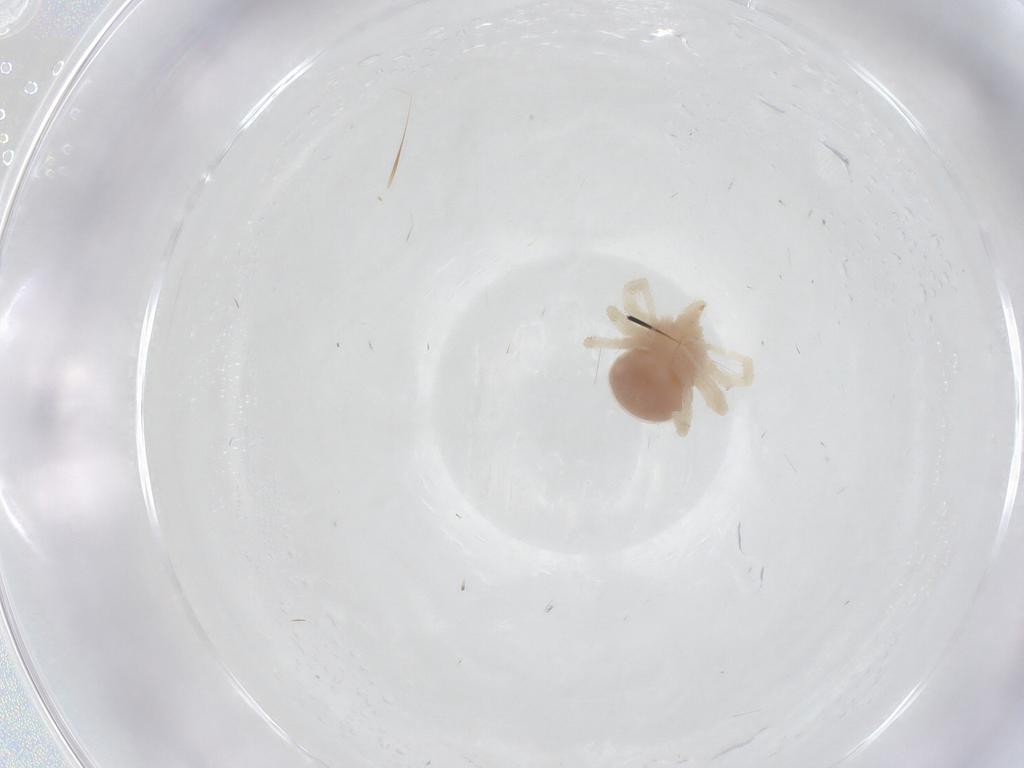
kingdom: Animalia
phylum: Arthropoda
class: Arachnida
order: Trombidiformes
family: Anystidae
